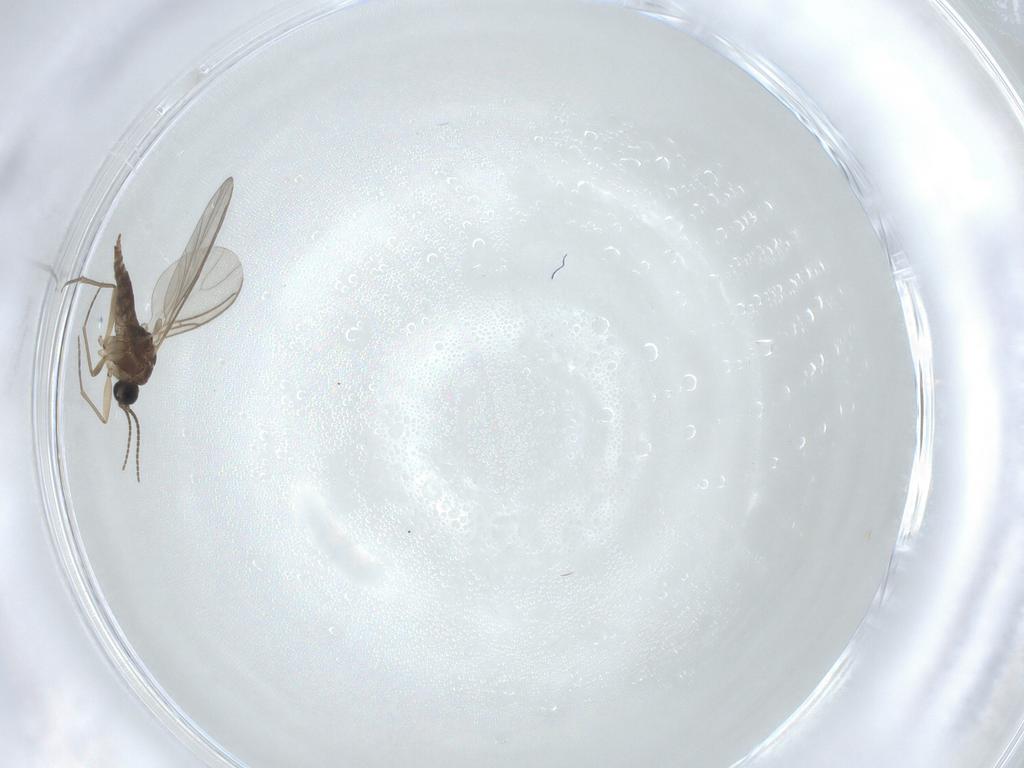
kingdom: Animalia
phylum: Arthropoda
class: Insecta
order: Diptera
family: Sciaridae
